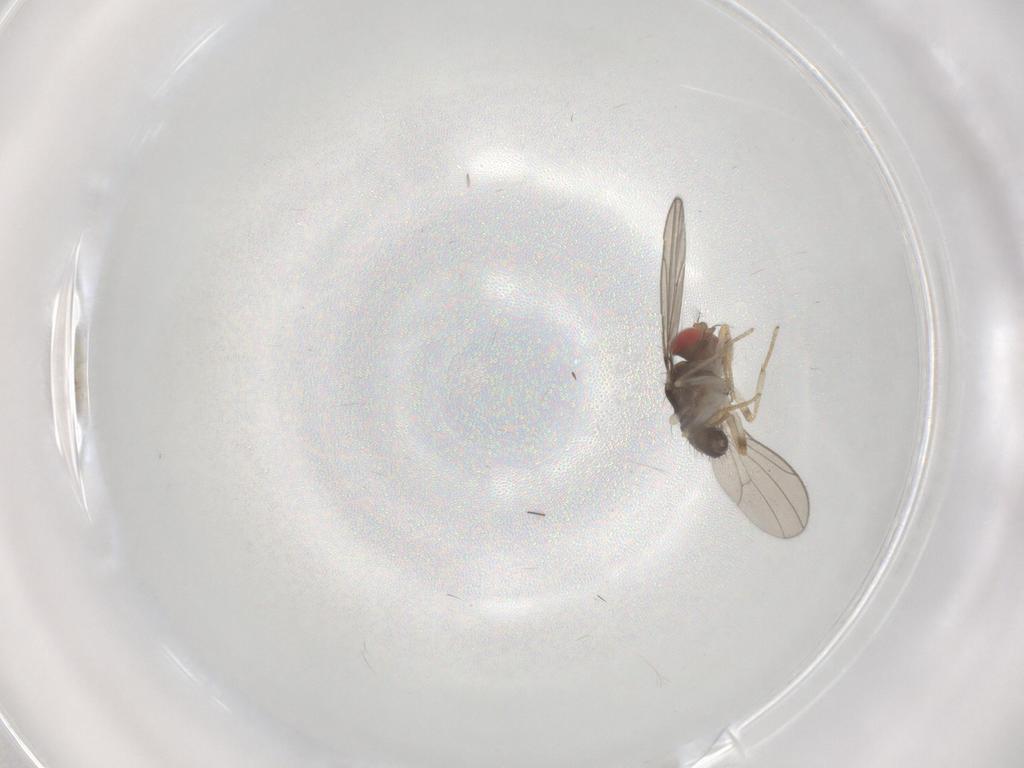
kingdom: Animalia
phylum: Arthropoda
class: Insecta
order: Diptera
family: Drosophilidae
